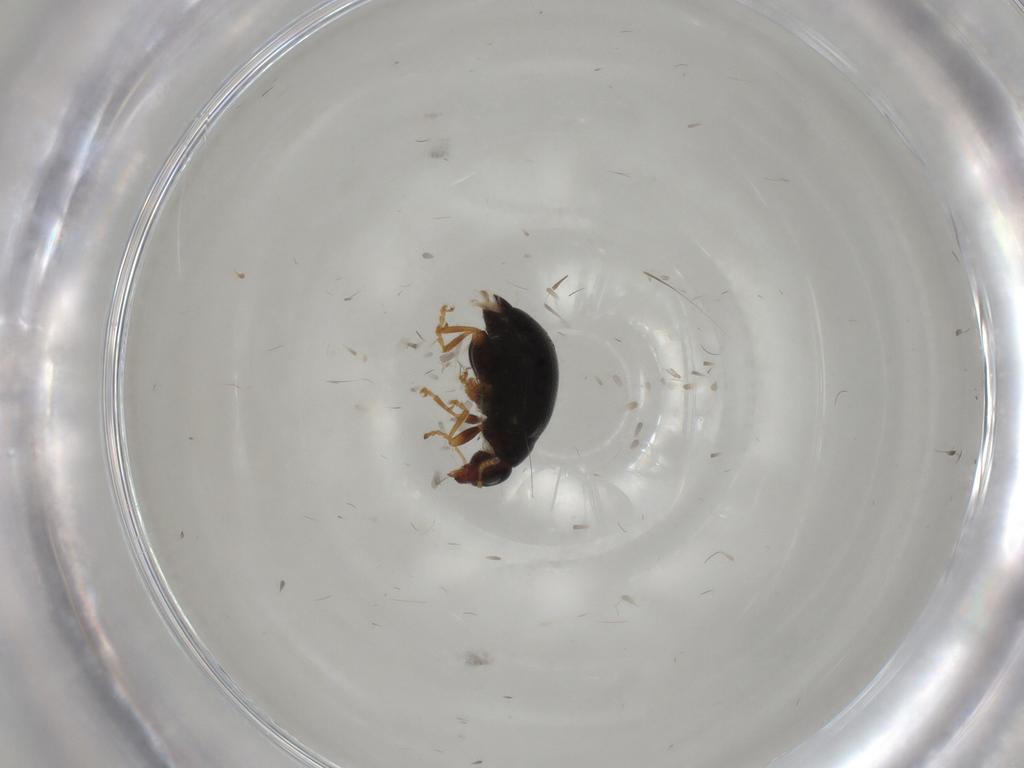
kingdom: Animalia
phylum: Arthropoda
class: Insecta
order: Coleoptera
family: Chrysomelidae
